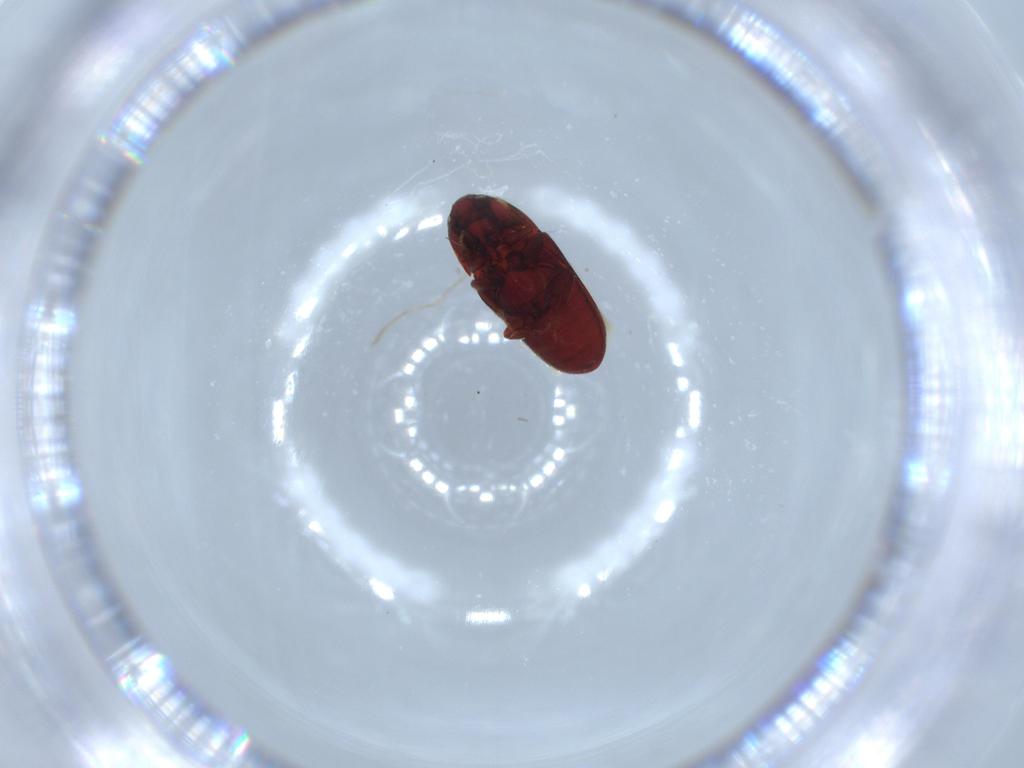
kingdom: Animalia
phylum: Arthropoda
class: Insecta
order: Coleoptera
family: Throscidae
